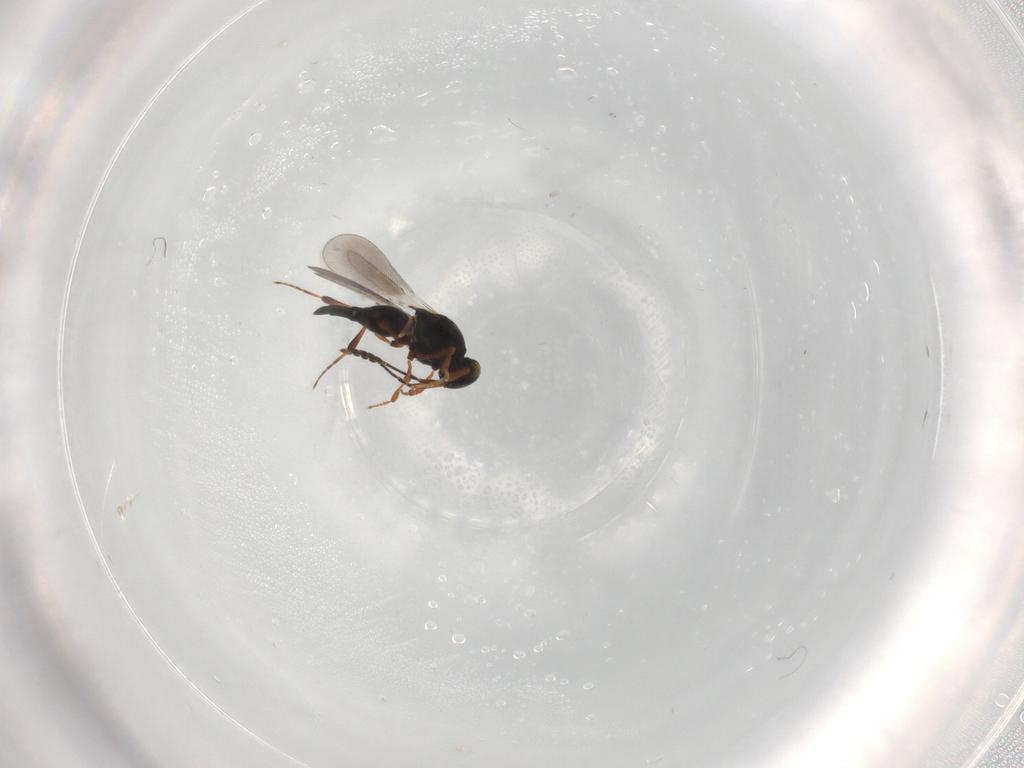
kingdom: Animalia
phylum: Arthropoda
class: Insecta
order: Hymenoptera
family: Platygastridae
